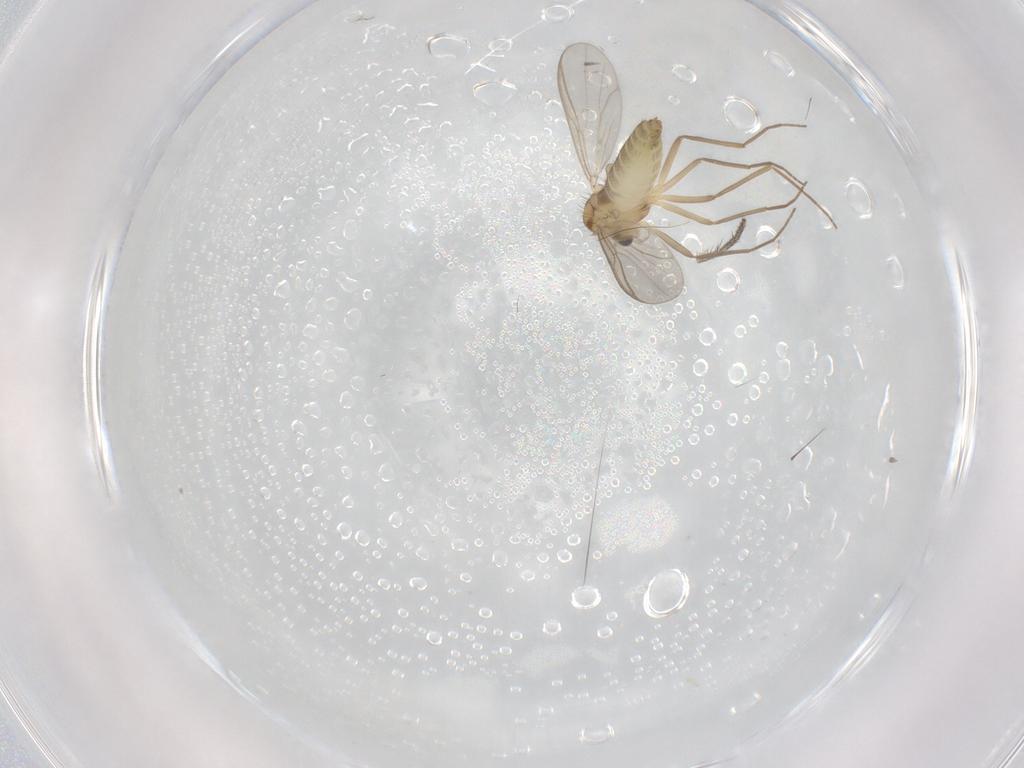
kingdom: Animalia
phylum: Arthropoda
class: Insecta
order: Diptera
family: Chironomidae
